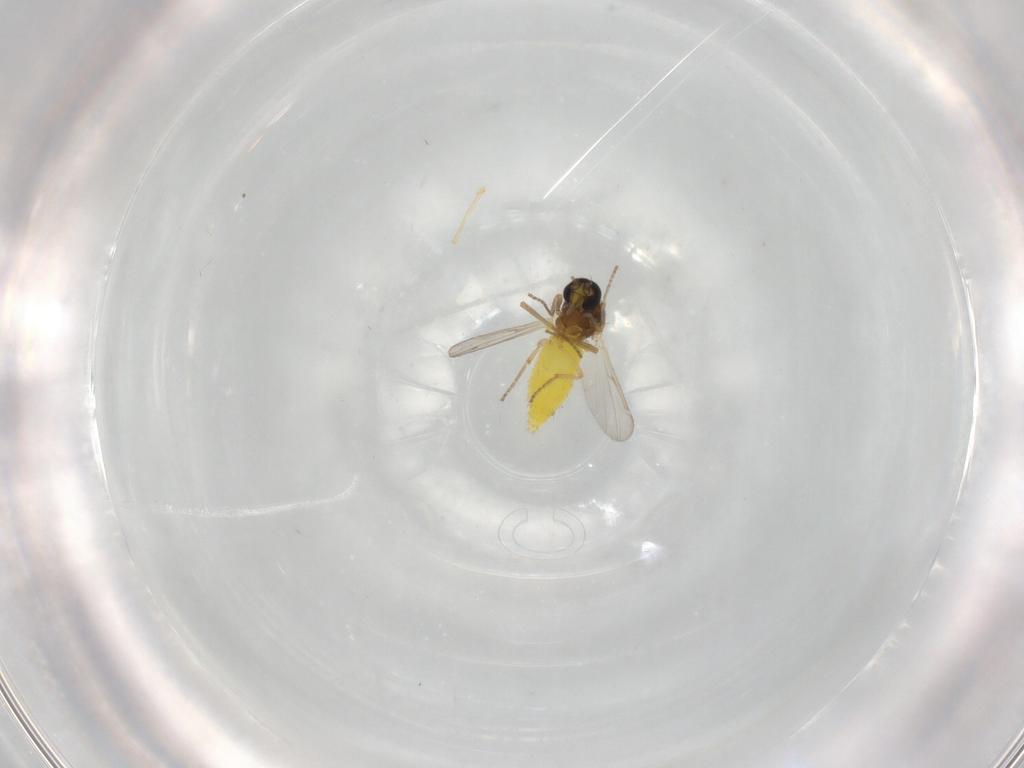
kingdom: Animalia
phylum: Arthropoda
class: Insecta
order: Diptera
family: Ceratopogonidae
